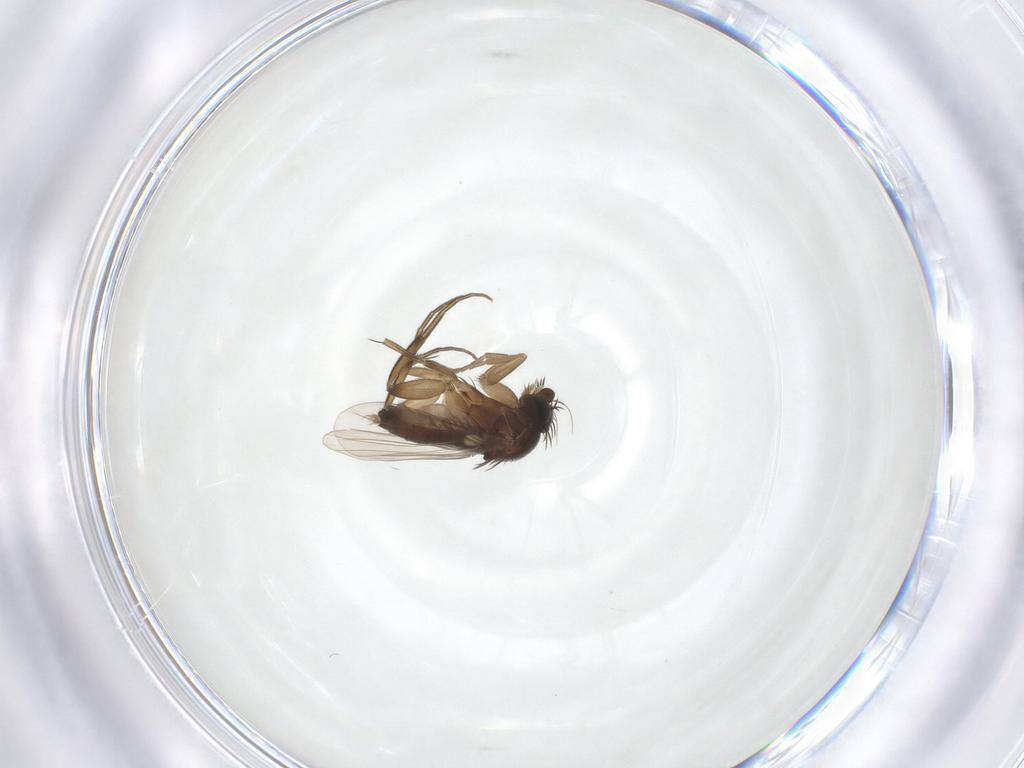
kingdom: Animalia
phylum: Arthropoda
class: Insecta
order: Diptera
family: Phoridae
